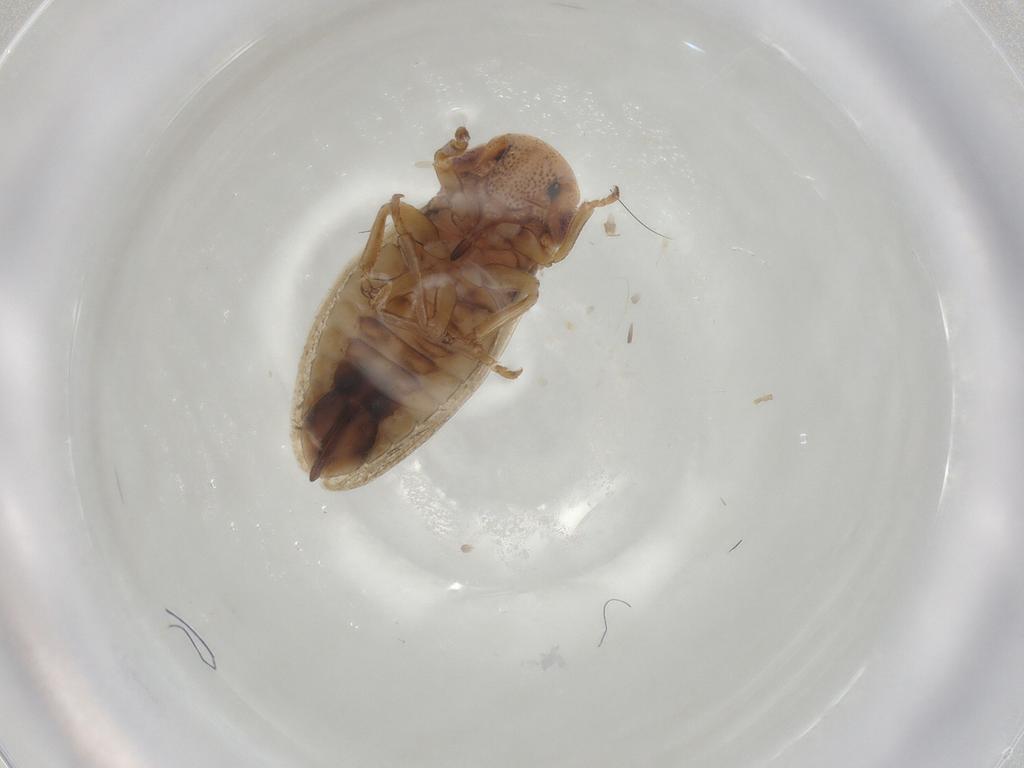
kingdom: Animalia
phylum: Arthropoda
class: Insecta
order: Hemiptera
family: Cicadellidae
